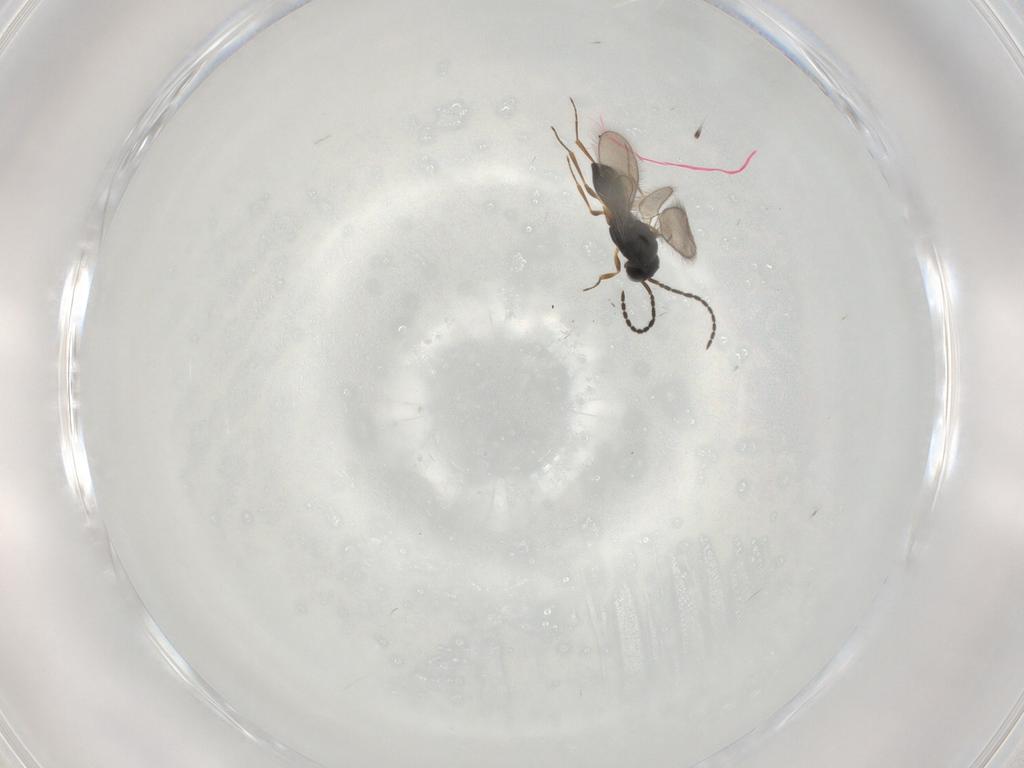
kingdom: Animalia
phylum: Arthropoda
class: Insecta
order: Hymenoptera
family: Scelionidae
